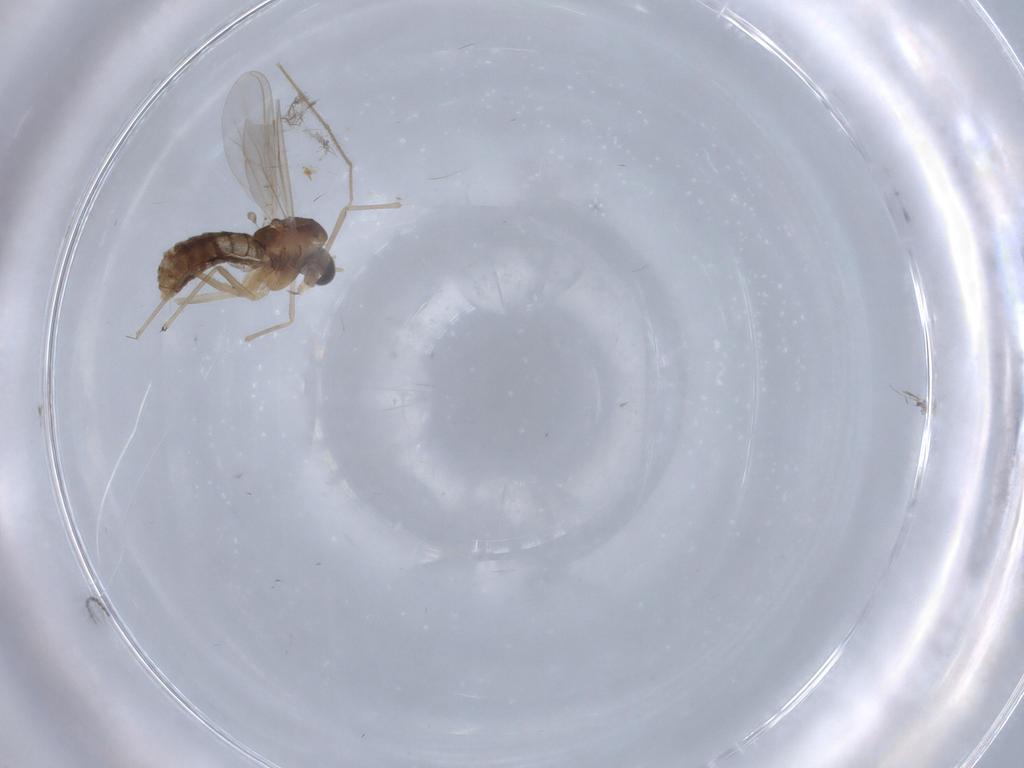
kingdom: Animalia
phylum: Arthropoda
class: Insecta
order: Diptera
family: Chironomidae
